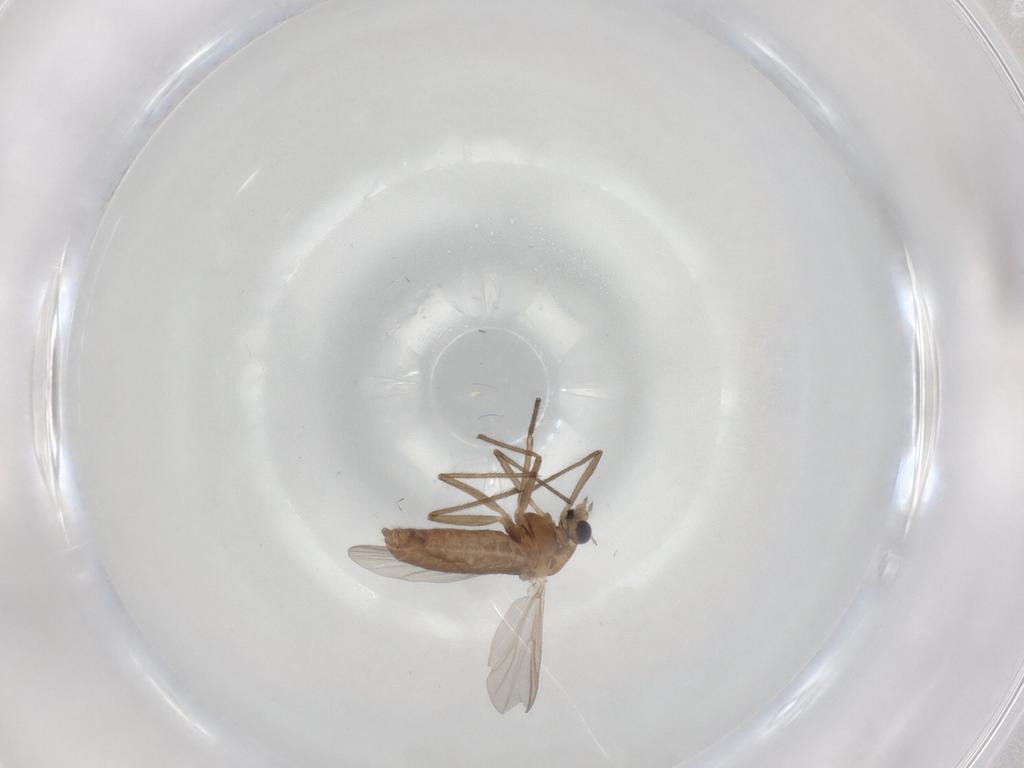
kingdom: Animalia
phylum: Arthropoda
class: Insecta
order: Diptera
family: Chironomidae
